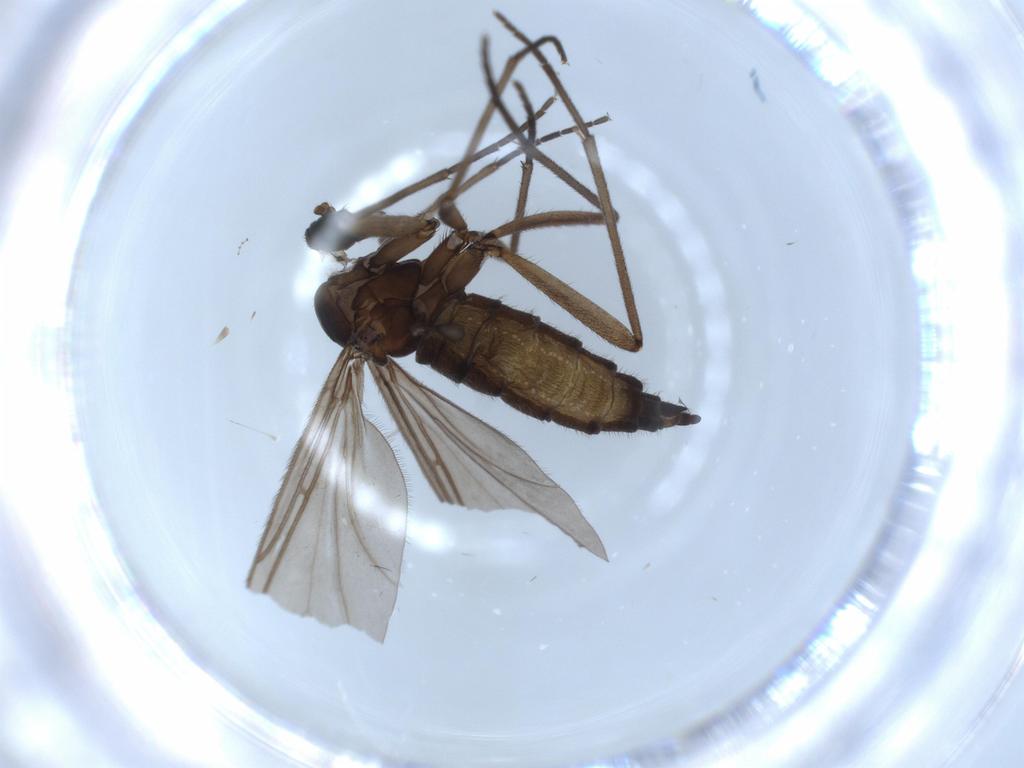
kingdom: Animalia
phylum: Arthropoda
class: Insecta
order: Diptera
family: Sciaridae
